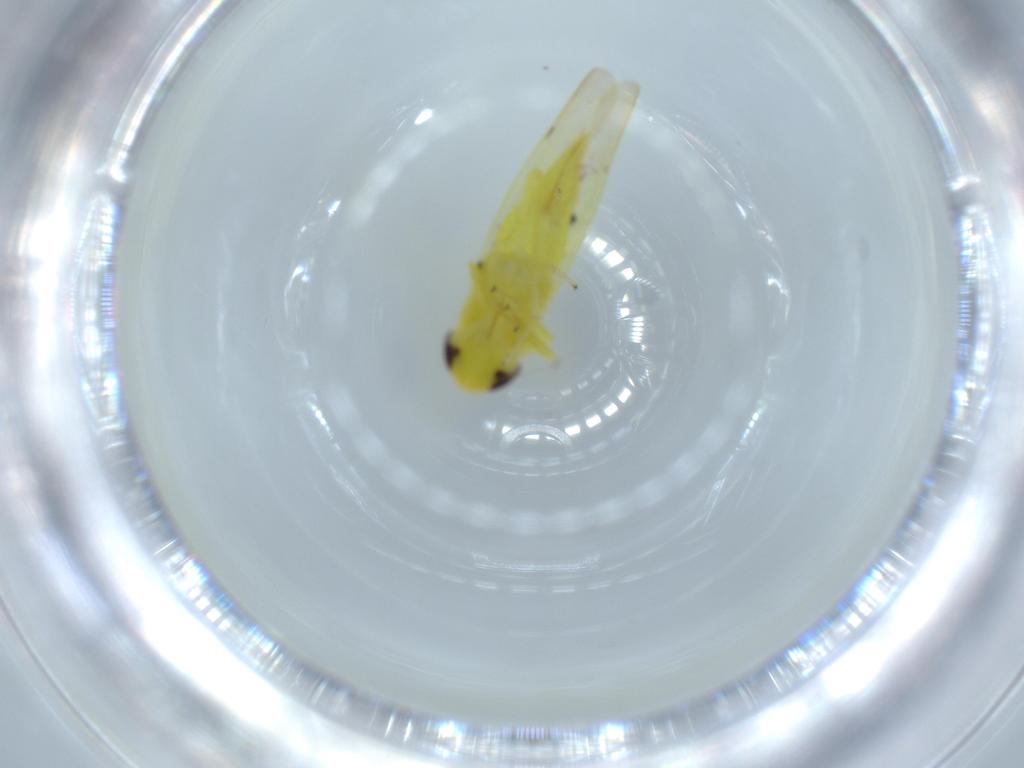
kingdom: Animalia
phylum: Arthropoda
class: Insecta
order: Hemiptera
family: Cicadellidae
